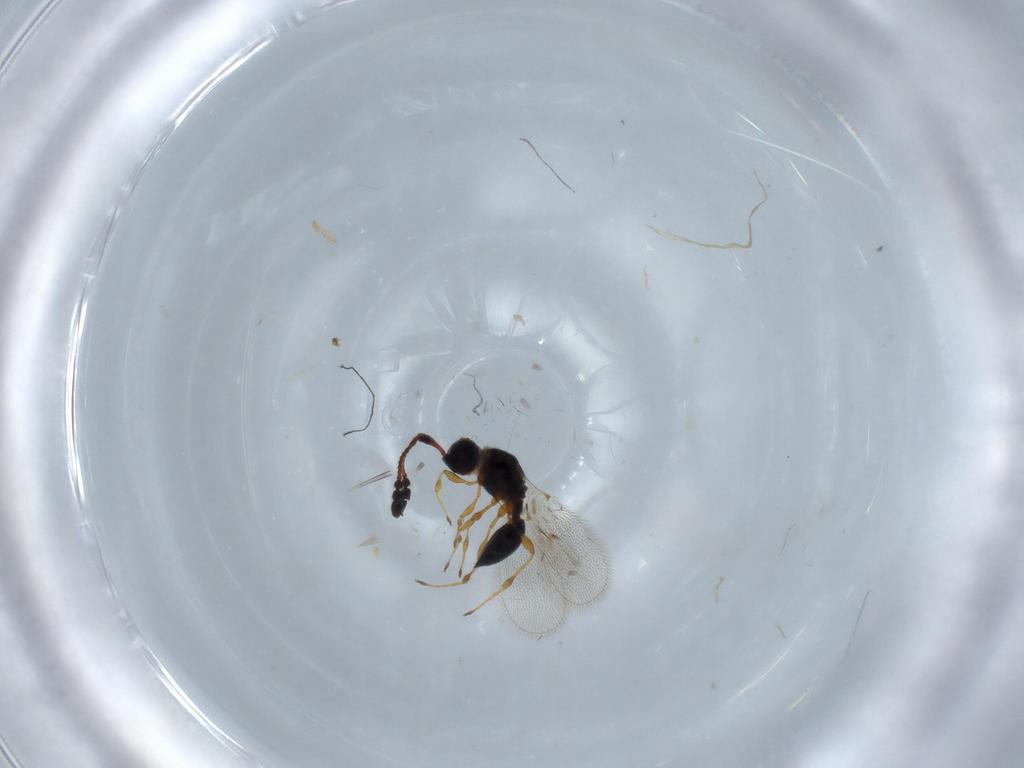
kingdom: Animalia
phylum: Arthropoda
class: Insecta
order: Hymenoptera
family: Diapriidae
